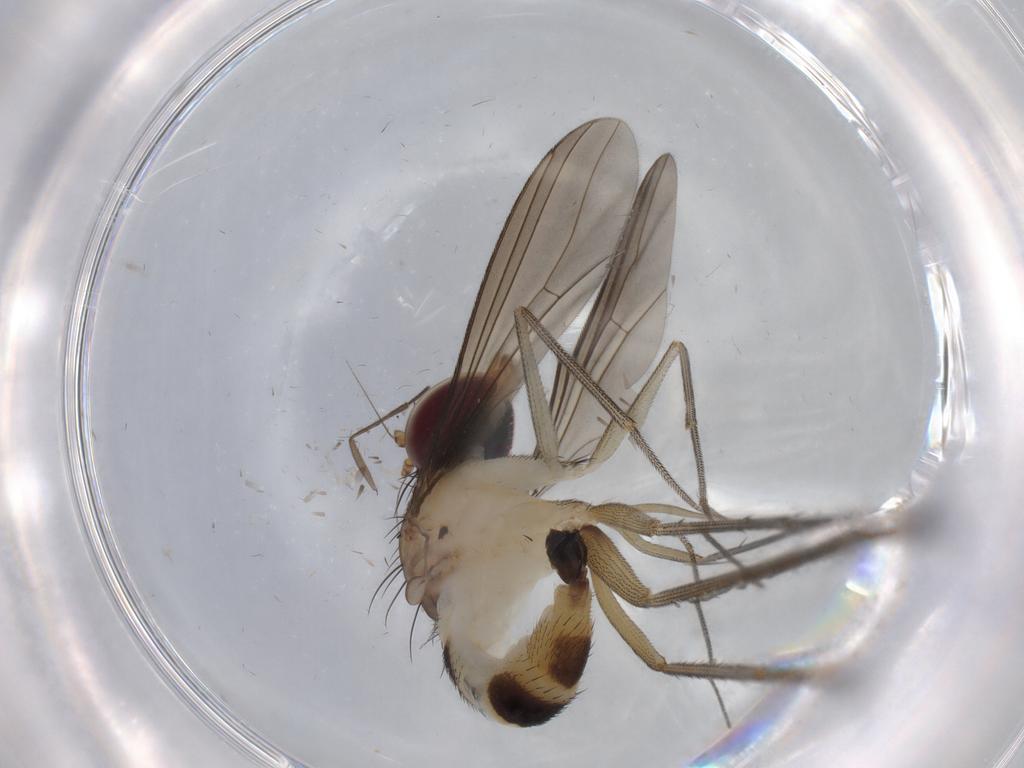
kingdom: Animalia
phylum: Arthropoda
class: Insecta
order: Diptera
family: Dolichopodidae
